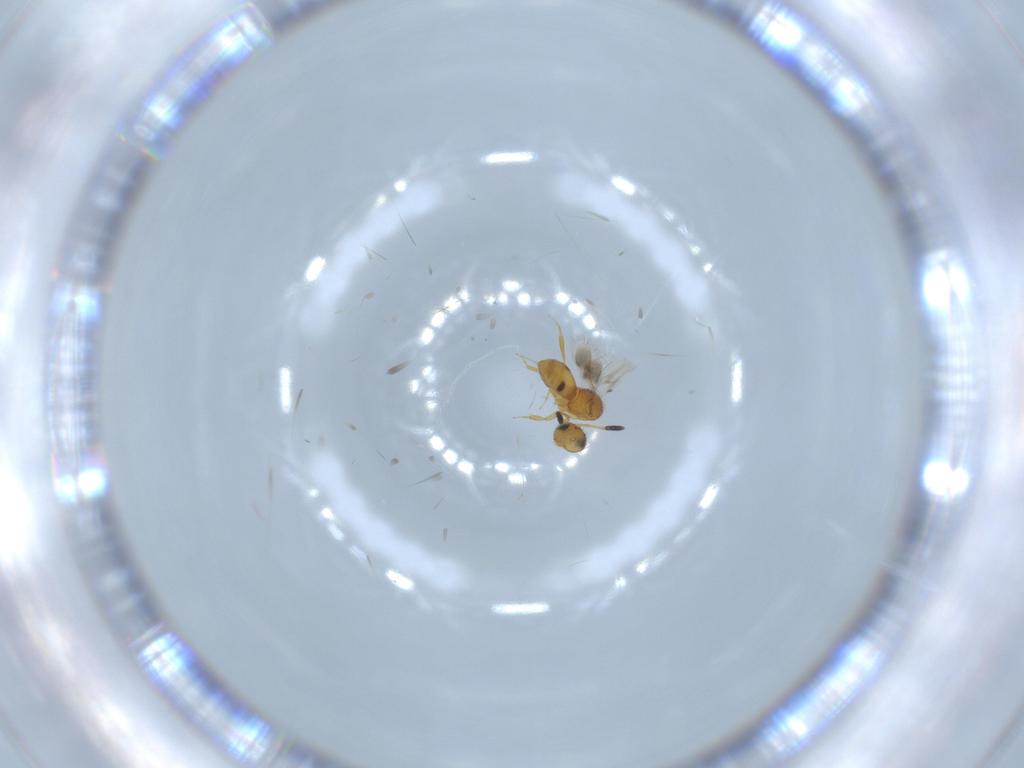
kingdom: Animalia
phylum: Arthropoda
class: Insecta
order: Hymenoptera
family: Scelionidae
